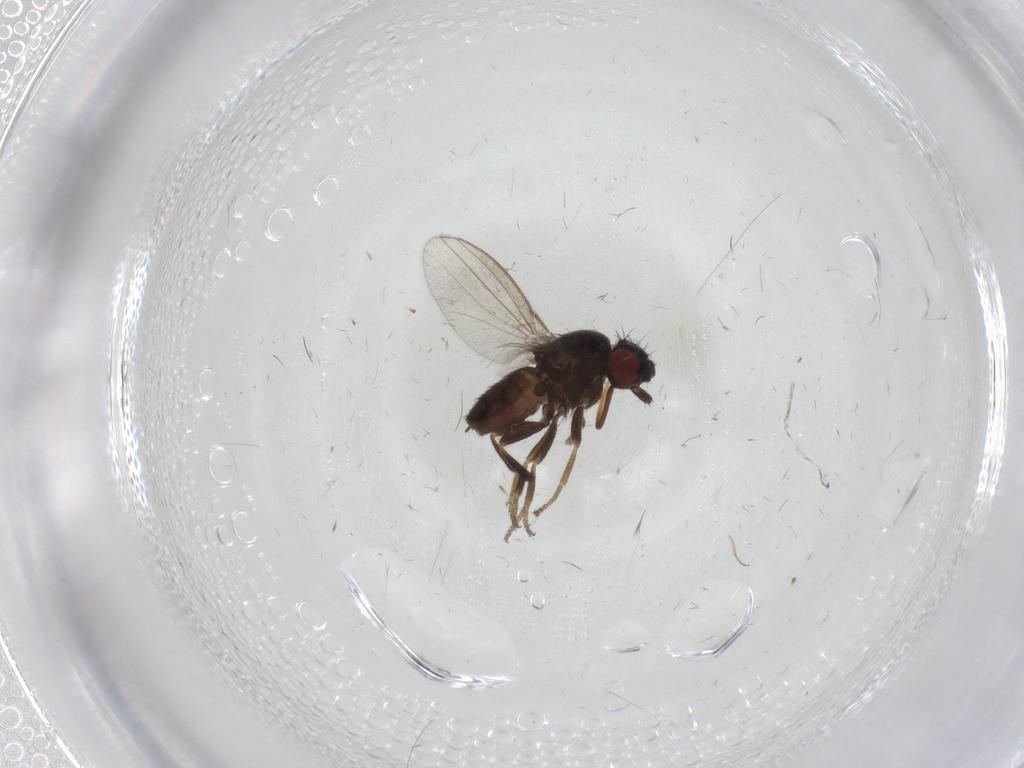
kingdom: Animalia
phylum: Arthropoda
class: Insecta
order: Diptera
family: Milichiidae
